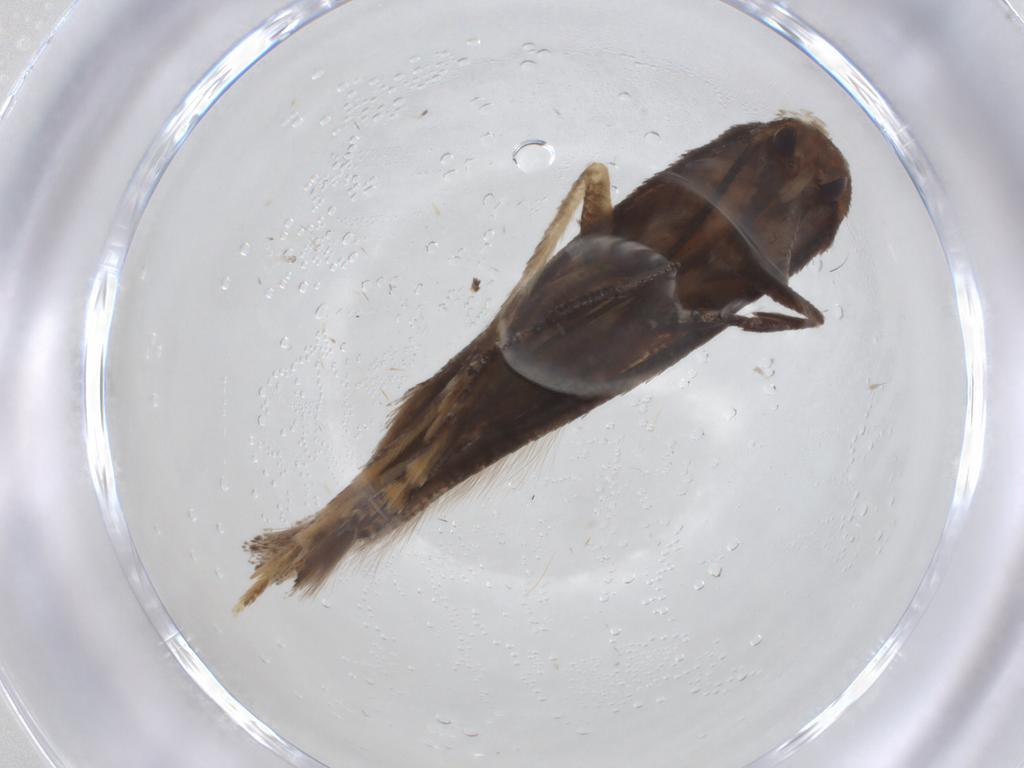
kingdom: Animalia
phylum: Arthropoda
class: Insecta
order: Lepidoptera
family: Momphidae
